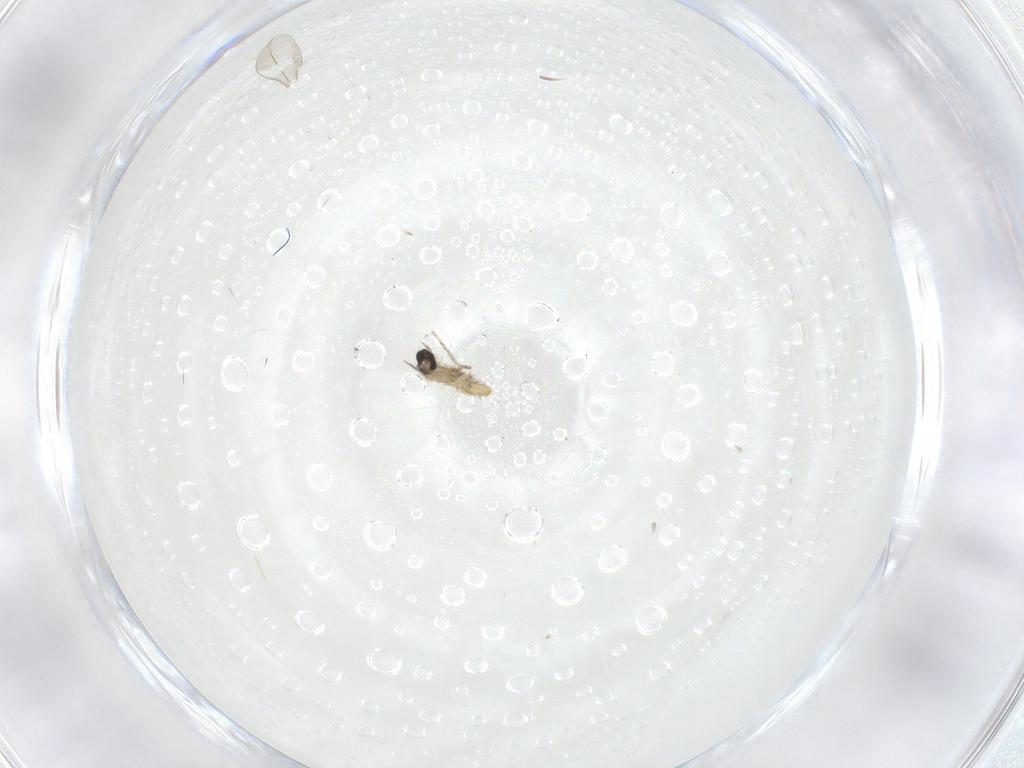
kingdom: Animalia
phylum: Arthropoda
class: Insecta
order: Diptera
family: Cecidomyiidae
